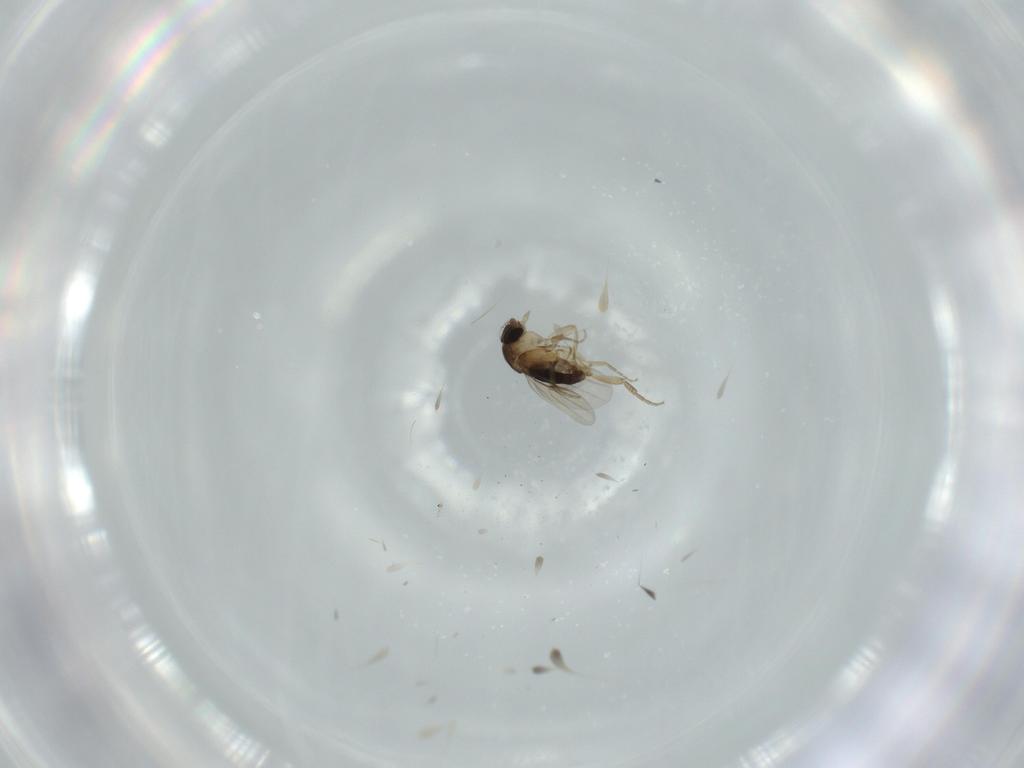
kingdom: Animalia
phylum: Arthropoda
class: Insecta
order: Diptera
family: Phoridae
